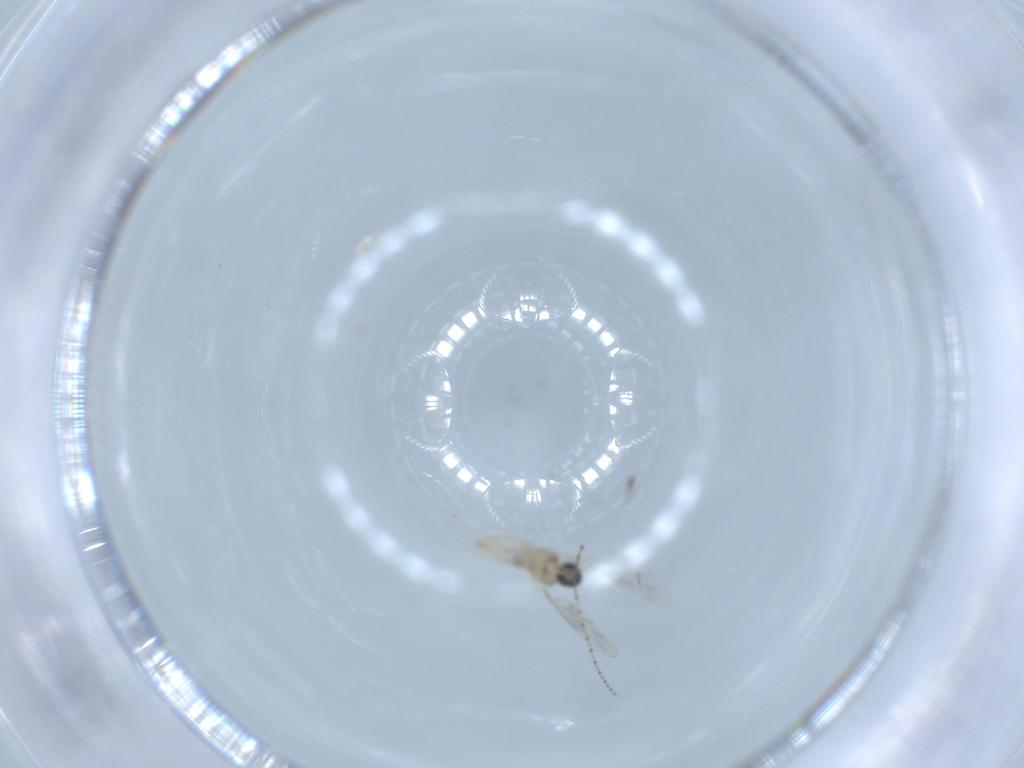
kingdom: Animalia
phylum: Arthropoda
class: Insecta
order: Diptera
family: Cecidomyiidae
